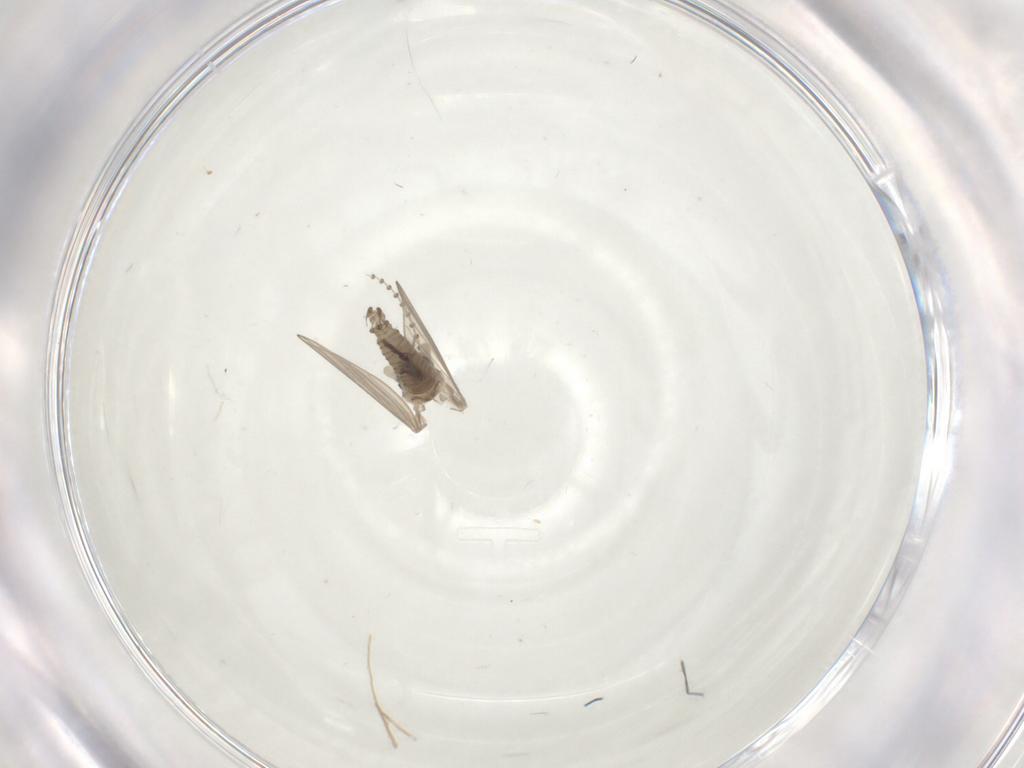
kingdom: Animalia
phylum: Arthropoda
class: Insecta
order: Diptera
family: Psychodidae
